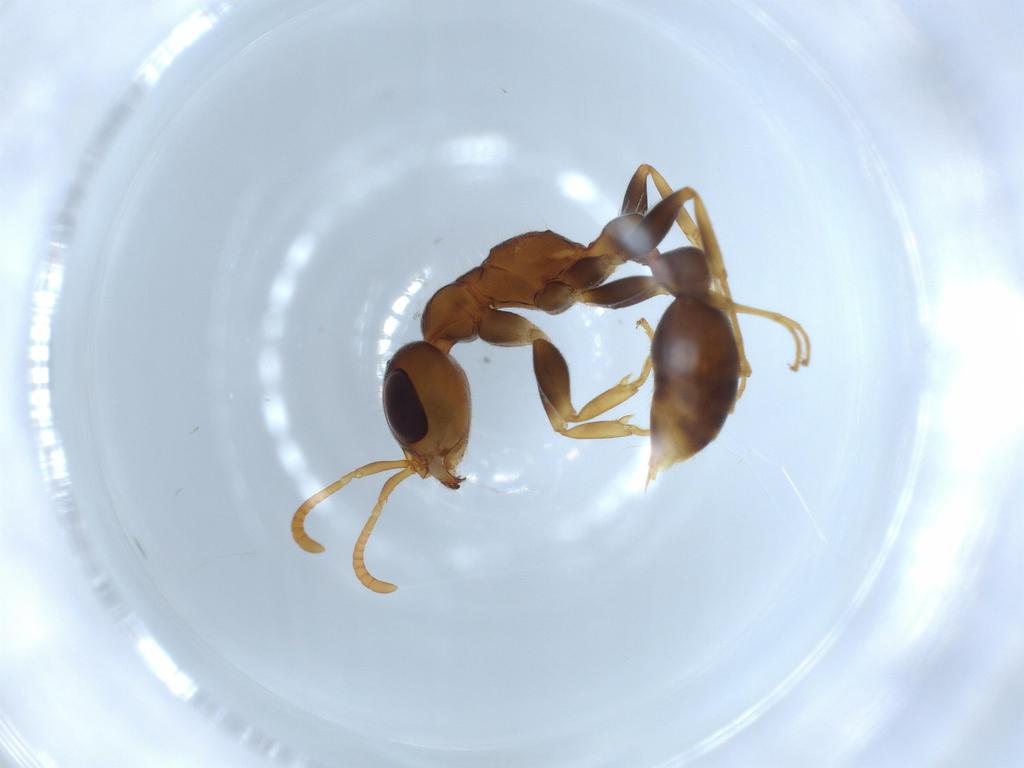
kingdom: Animalia
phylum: Arthropoda
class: Insecta
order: Hymenoptera
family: Formicidae
